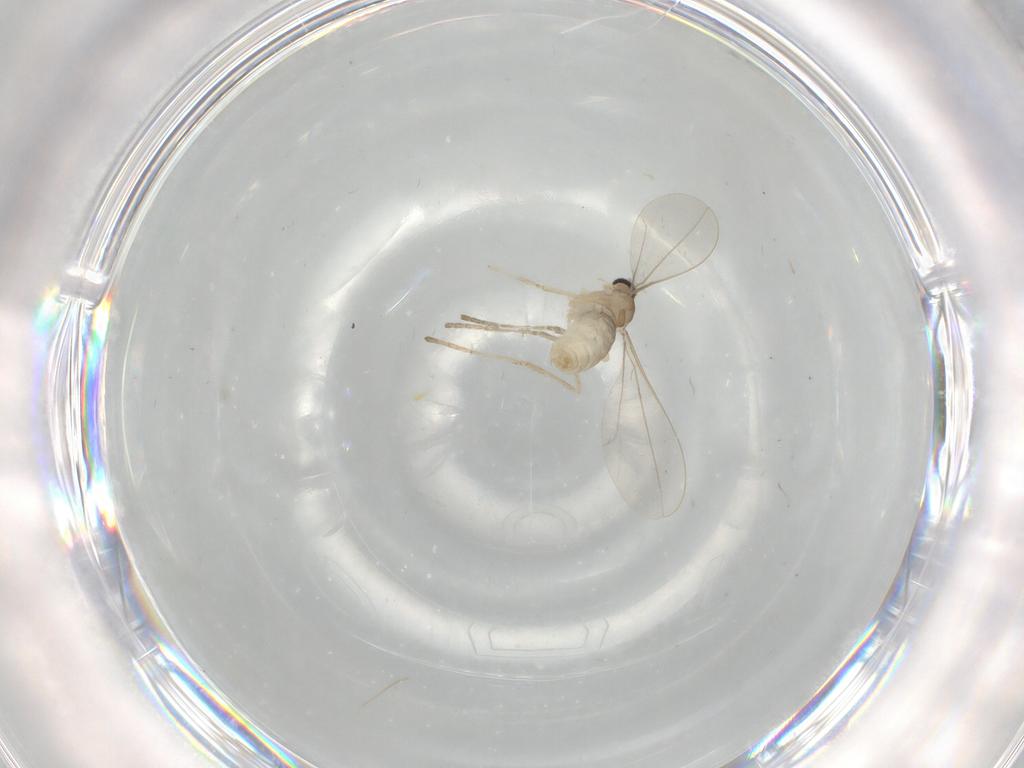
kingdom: Animalia
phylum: Arthropoda
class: Insecta
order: Diptera
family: Cecidomyiidae
